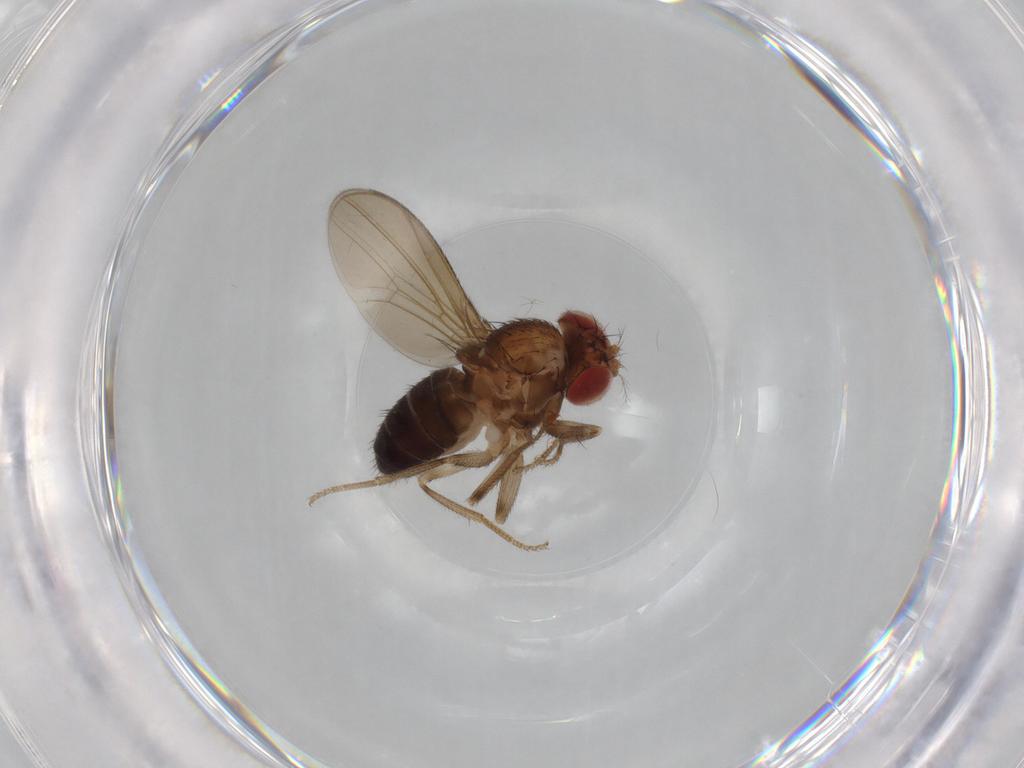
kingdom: Animalia
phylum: Arthropoda
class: Insecta
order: Diptera
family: Drosophilidae
